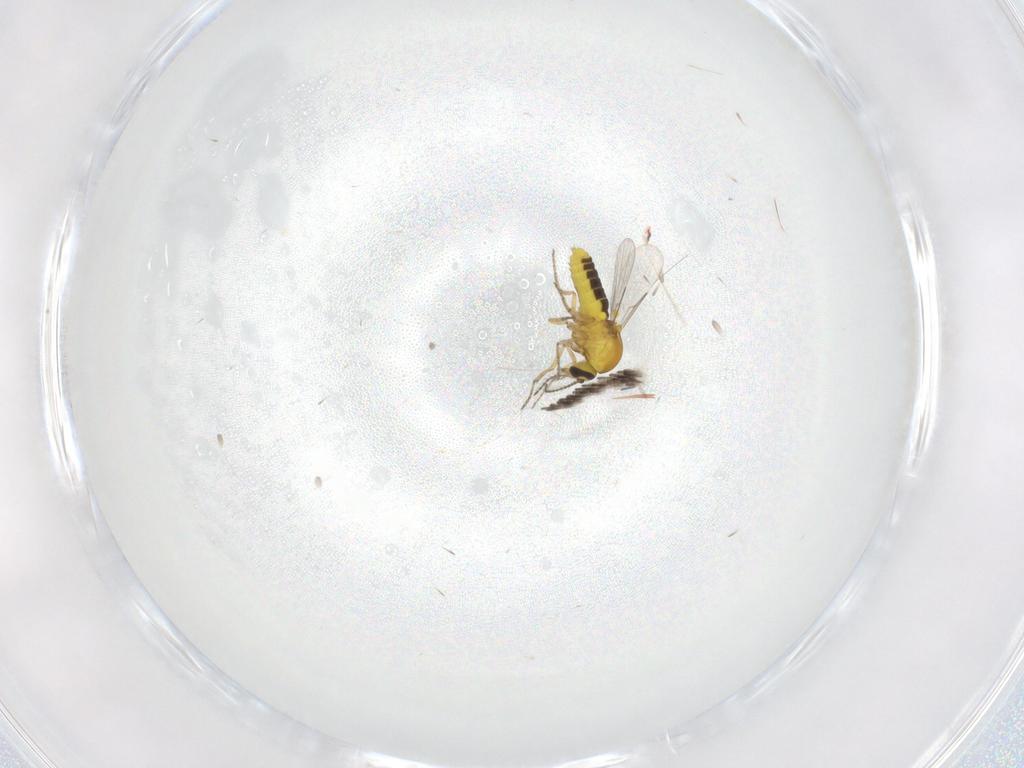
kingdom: Animalia
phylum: Arthropoda
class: Insecta
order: Diptera
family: Ceratopogonidae
